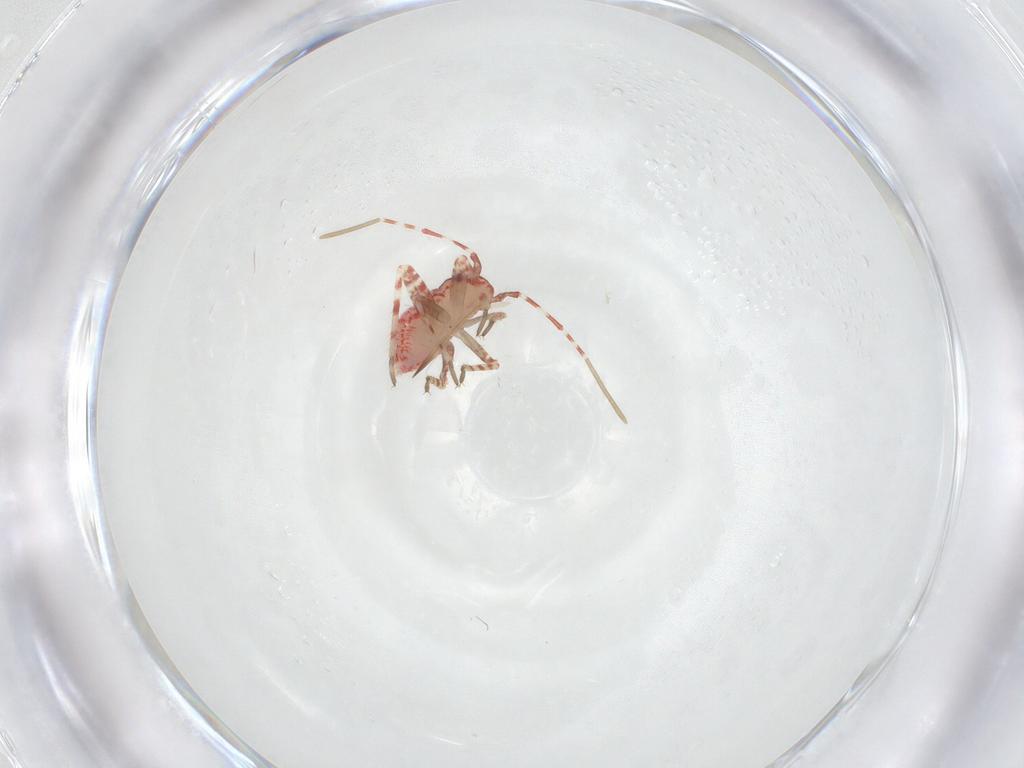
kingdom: Animalia
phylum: Arthropoda
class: Insecta
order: Hemiptera
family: Miridae
